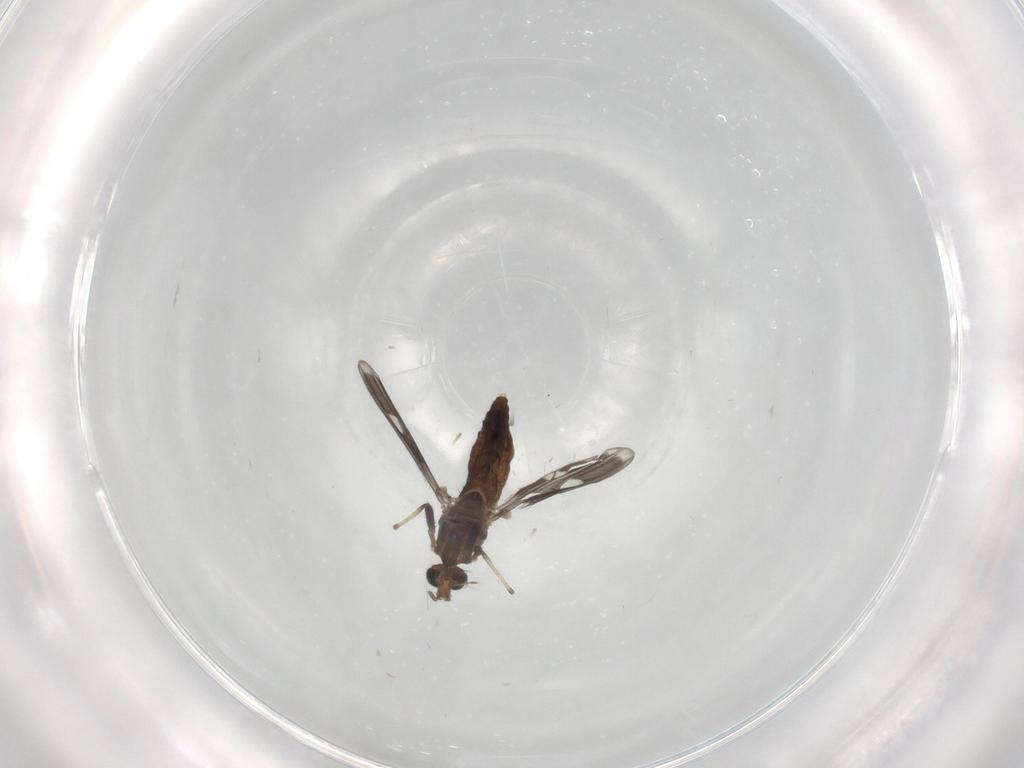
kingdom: Animalia
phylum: Arthropoda
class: Insecta
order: Diptera
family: Chironomidae
